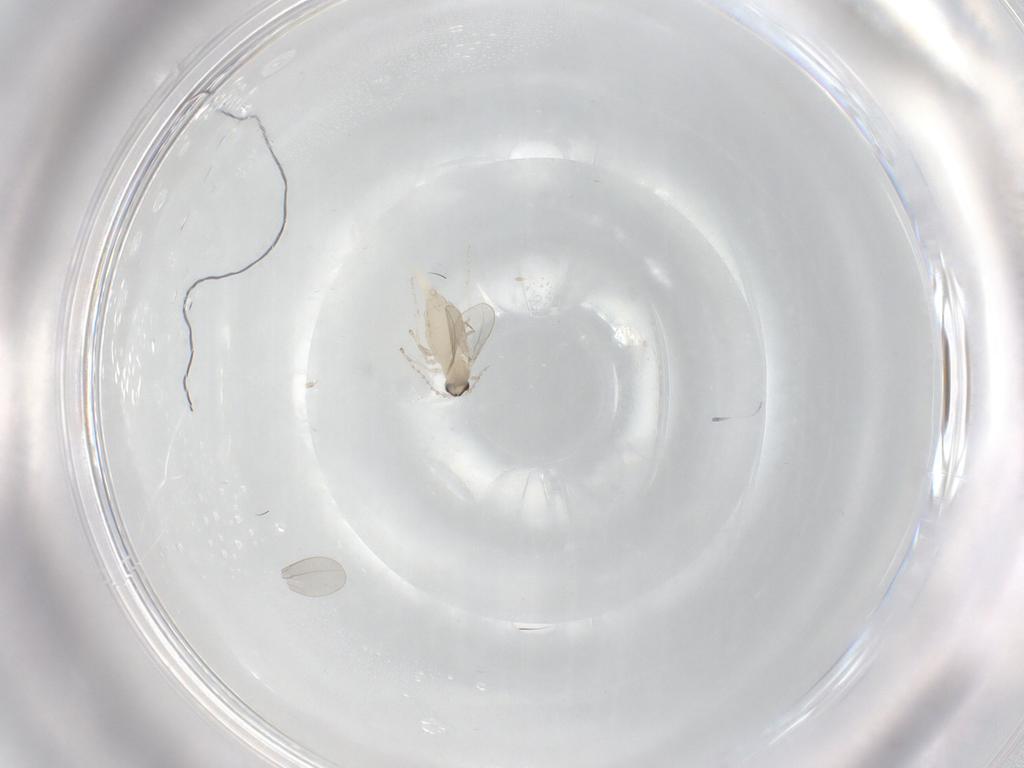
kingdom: Animalia
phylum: Arthropoda
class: Insecta
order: Diptera
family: Cecidomyiidae
